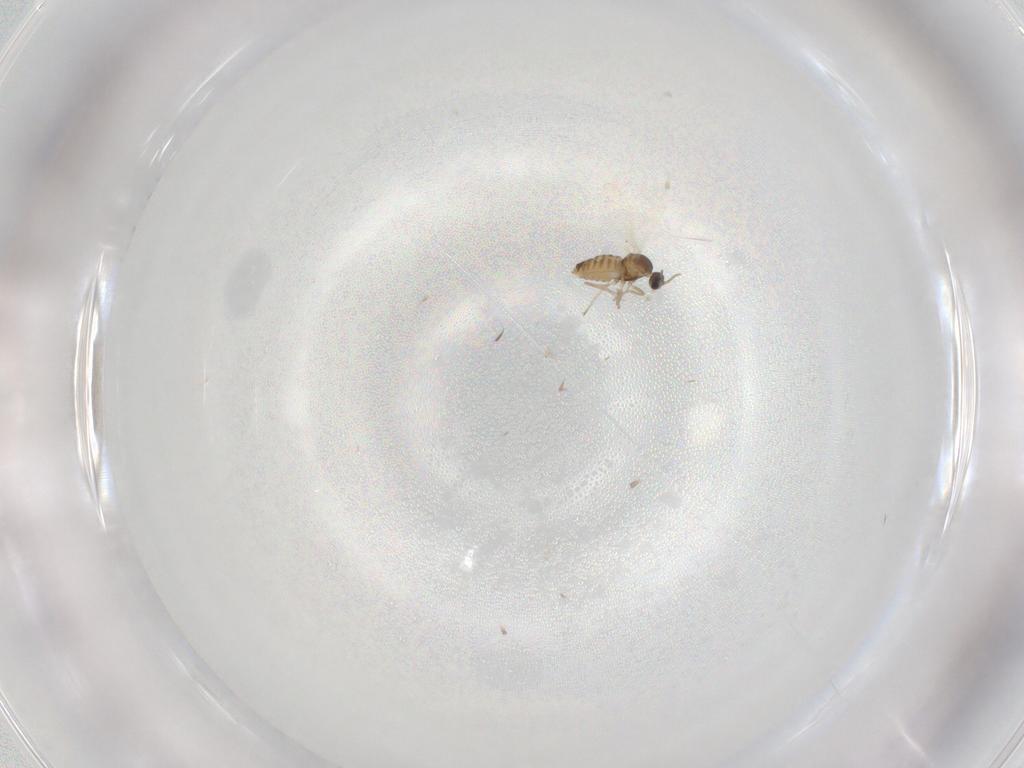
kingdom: Animalia
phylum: Arthropoda
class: Insecta
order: Diptera
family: Cecidomyiidae
